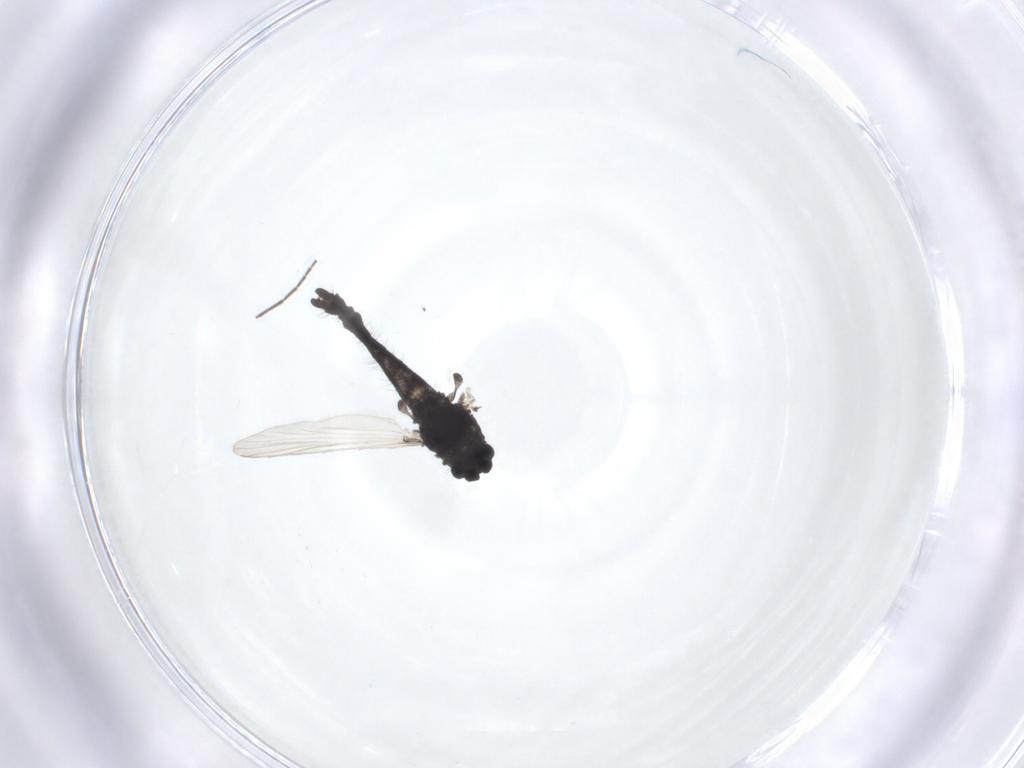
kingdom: Animalia
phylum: Arthropoda
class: Insecta
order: Diptera
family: Chironomidae
